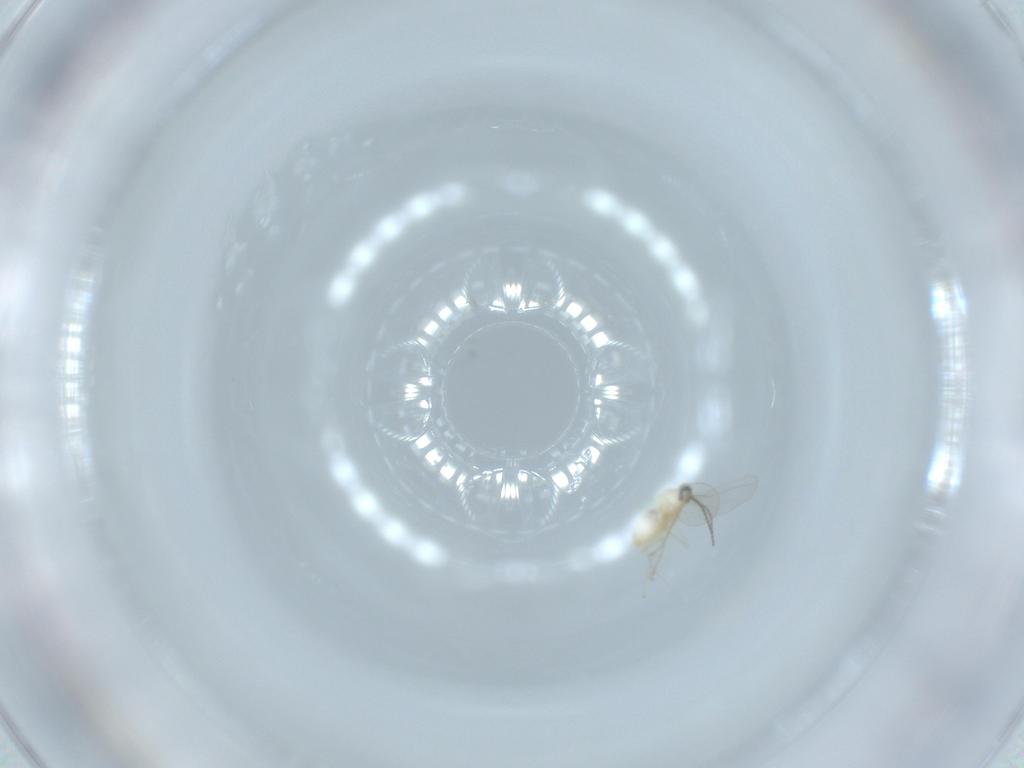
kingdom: Animalia
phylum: Arthropoda
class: Insecta
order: Diptera
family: Cecidomyiidae
